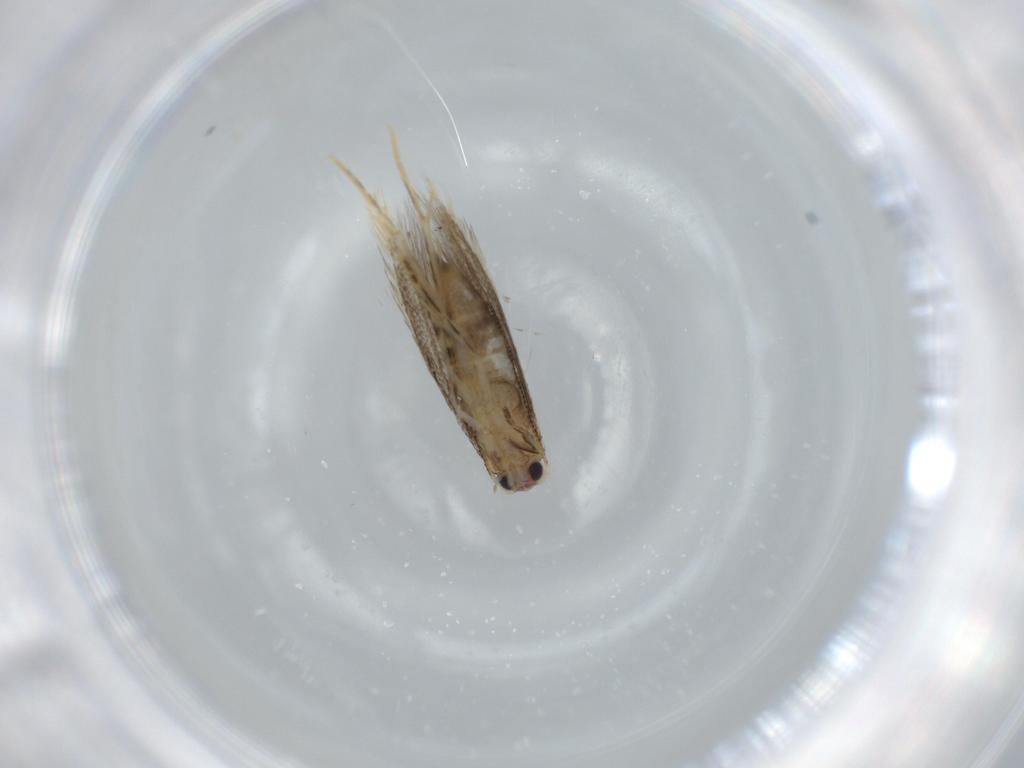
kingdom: Animalia
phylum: Arthropoda
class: Insecta
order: Lepidoptera
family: Tineidae
